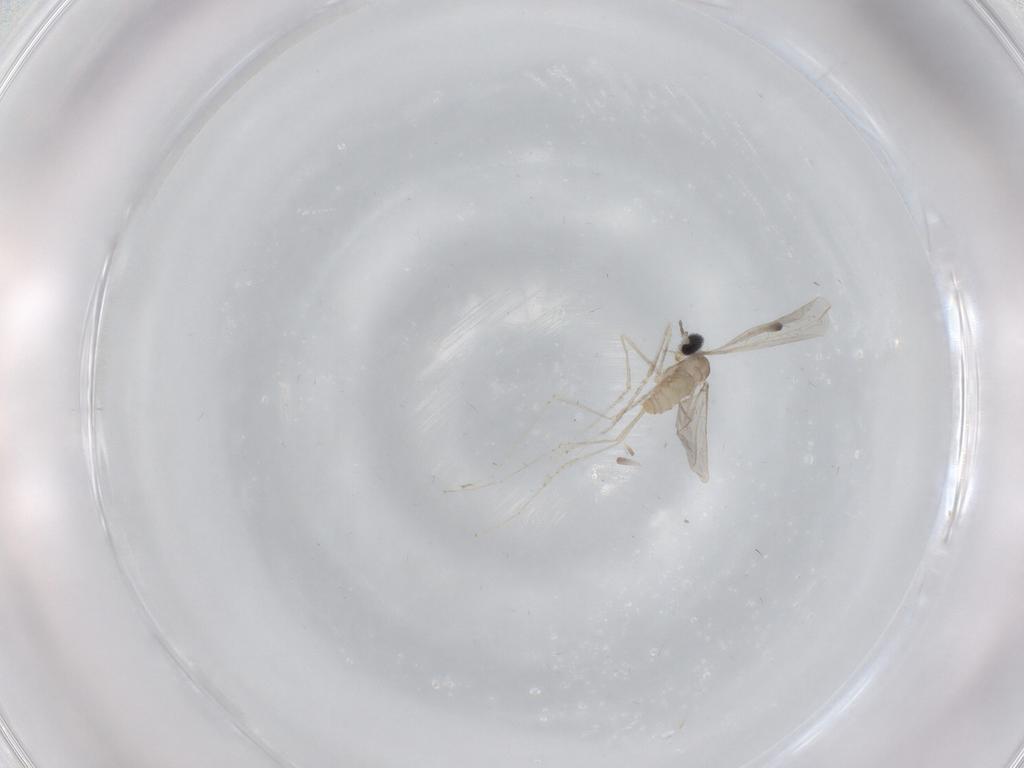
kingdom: Animalia
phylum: Arthropoda
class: Insecta
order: Diptera
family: Cecidomyiidae
